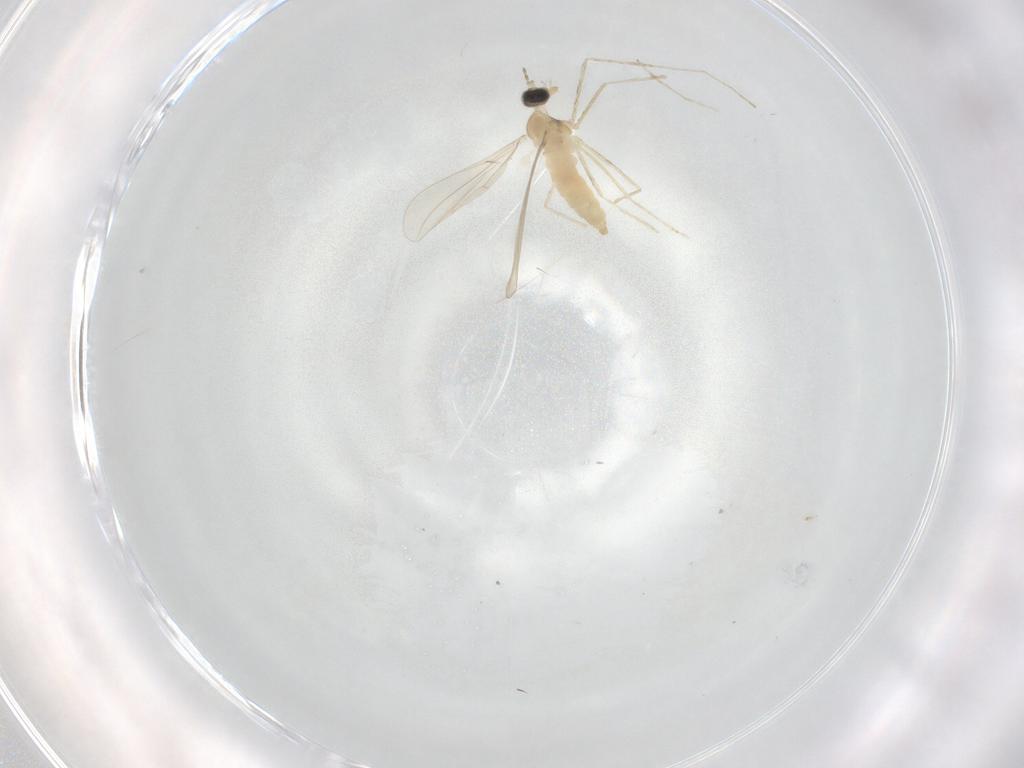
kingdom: Animalia
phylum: Arthropoda
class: Insecta
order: Diptera
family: Cecidomyiidae
